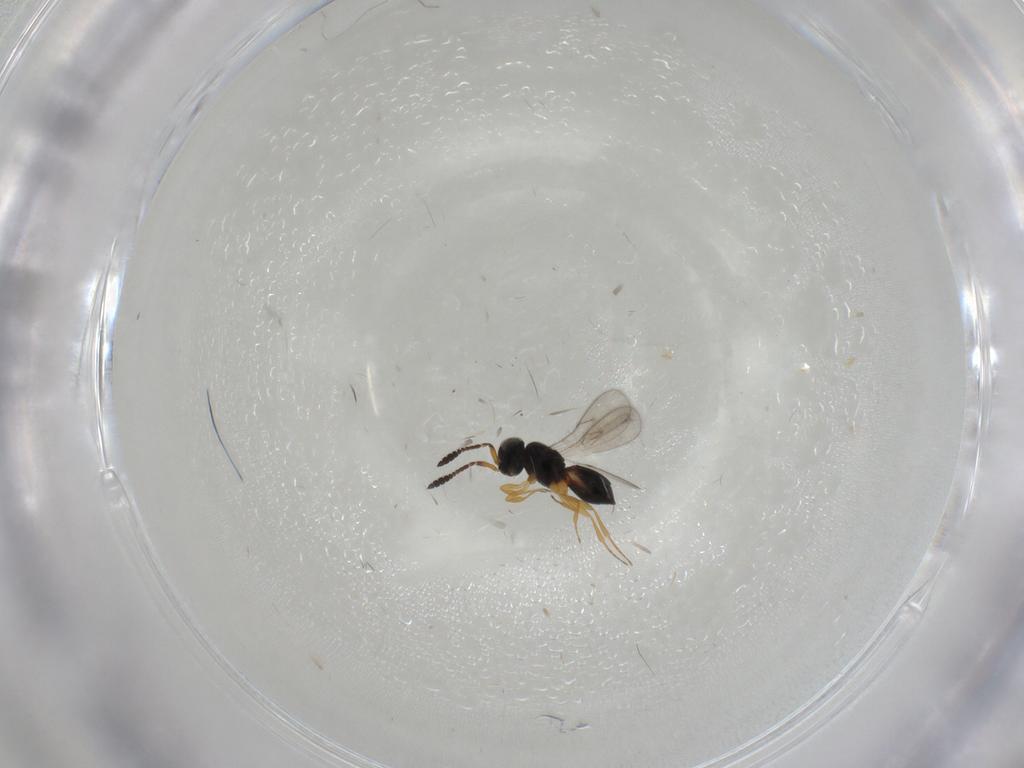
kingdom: Animalia
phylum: Arthropoda
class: Insecta
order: Hymenoptera
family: Scelionidae
